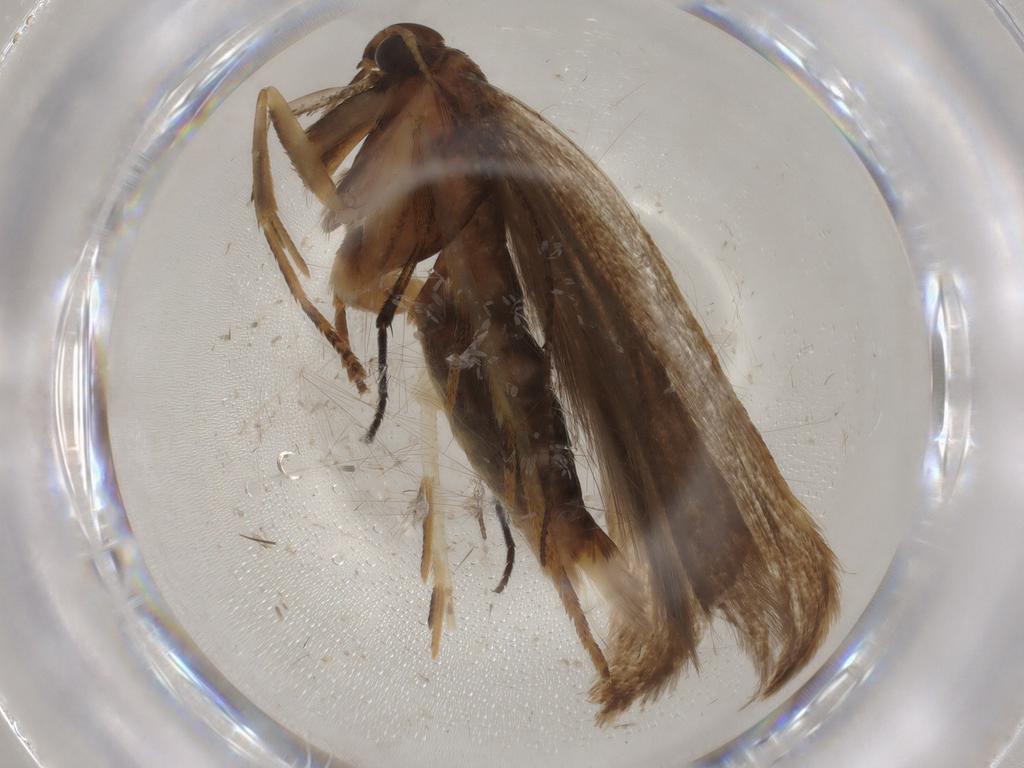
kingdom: Animalia
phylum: Arthropoda
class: Insecta
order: Lepidoptera
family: Gelechiidae
